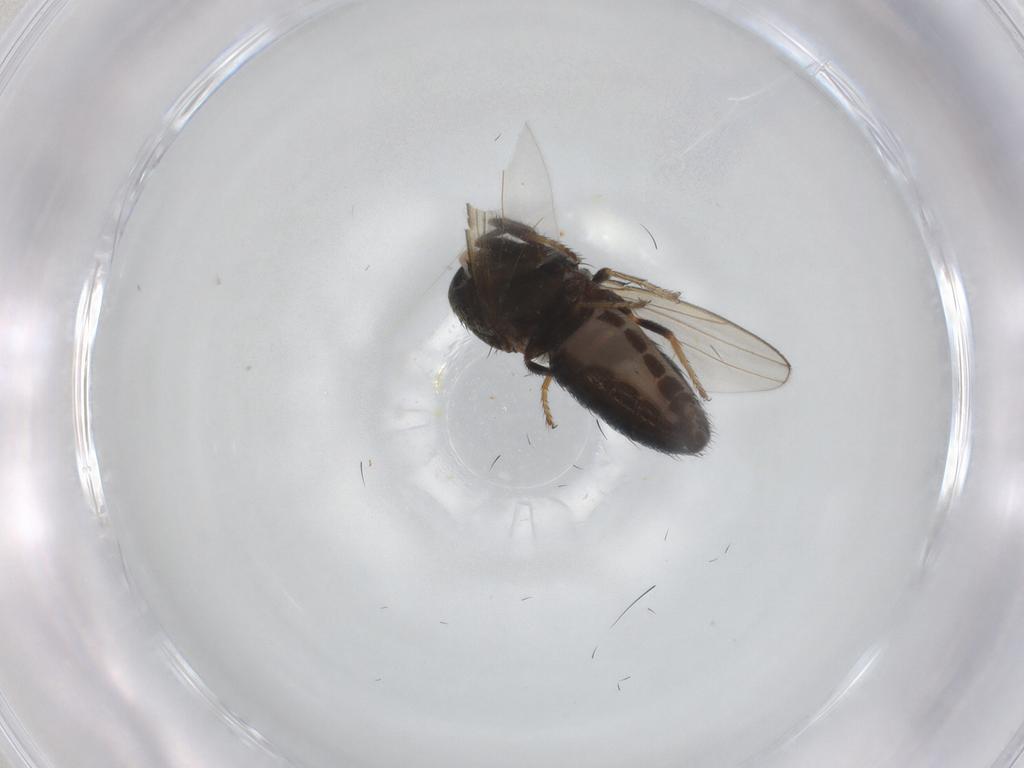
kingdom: Animalia
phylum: Arthropoda
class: Insecta
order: Diptera
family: Ephydridae
